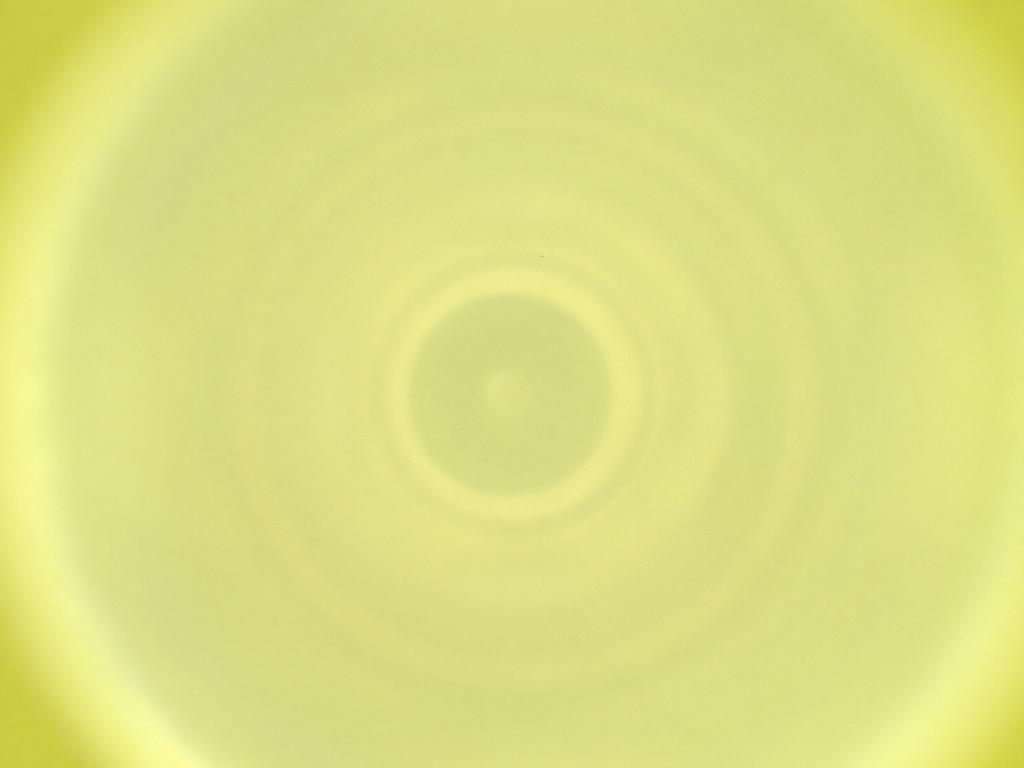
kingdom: Animalia
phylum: Arthropoda
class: Insecta
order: Diptera
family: Cecidomyiidae
